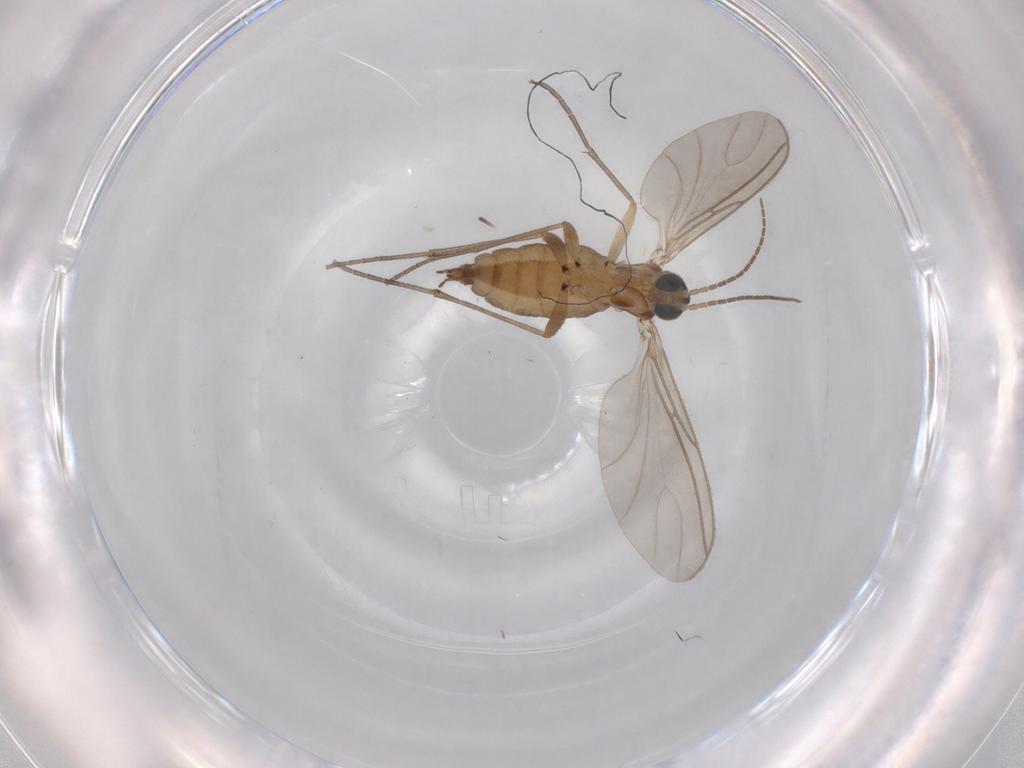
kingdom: Animalia
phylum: Arthropoda
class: Insecta
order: Diptera
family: Sciaridae
